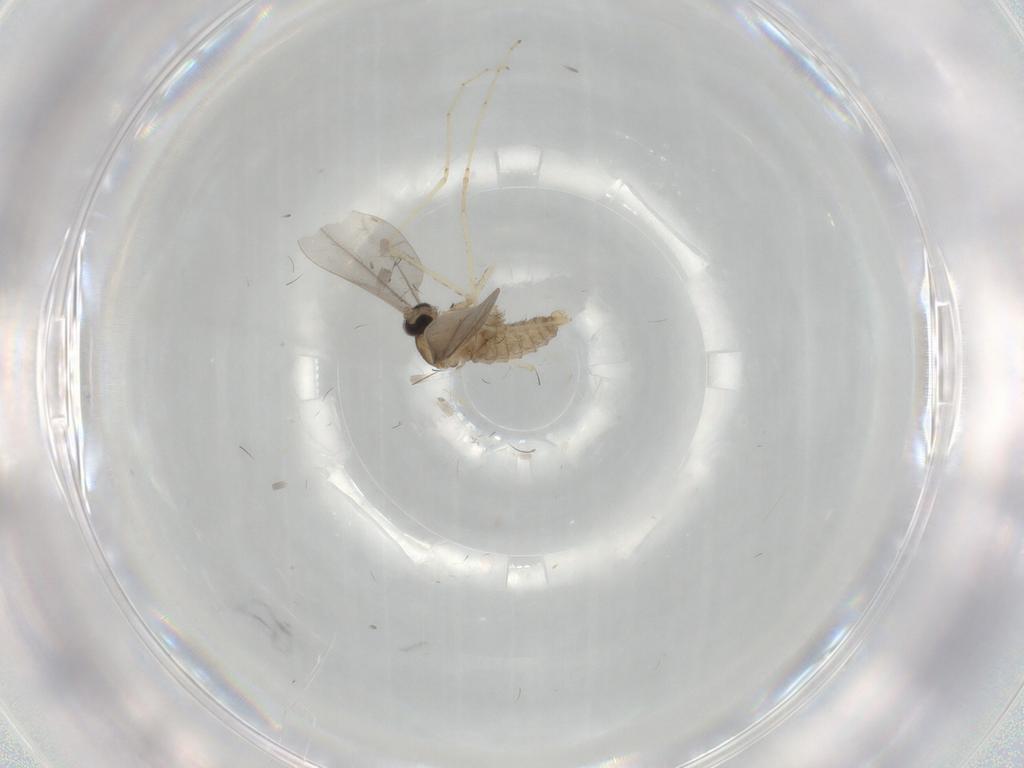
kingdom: Animalia
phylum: Arthropoda
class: Insecta
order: Diptera
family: Cecidomyiidae
